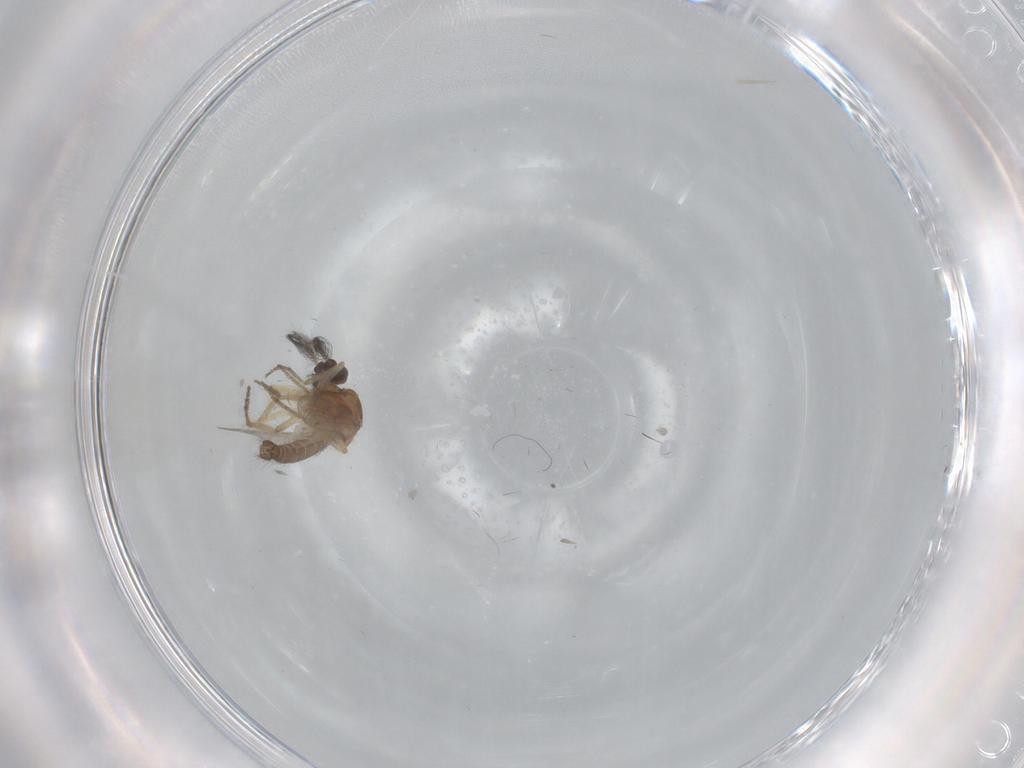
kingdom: Animalia
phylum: Arthropoda
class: Insecta
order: Diptera
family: Ceratopogonidae
